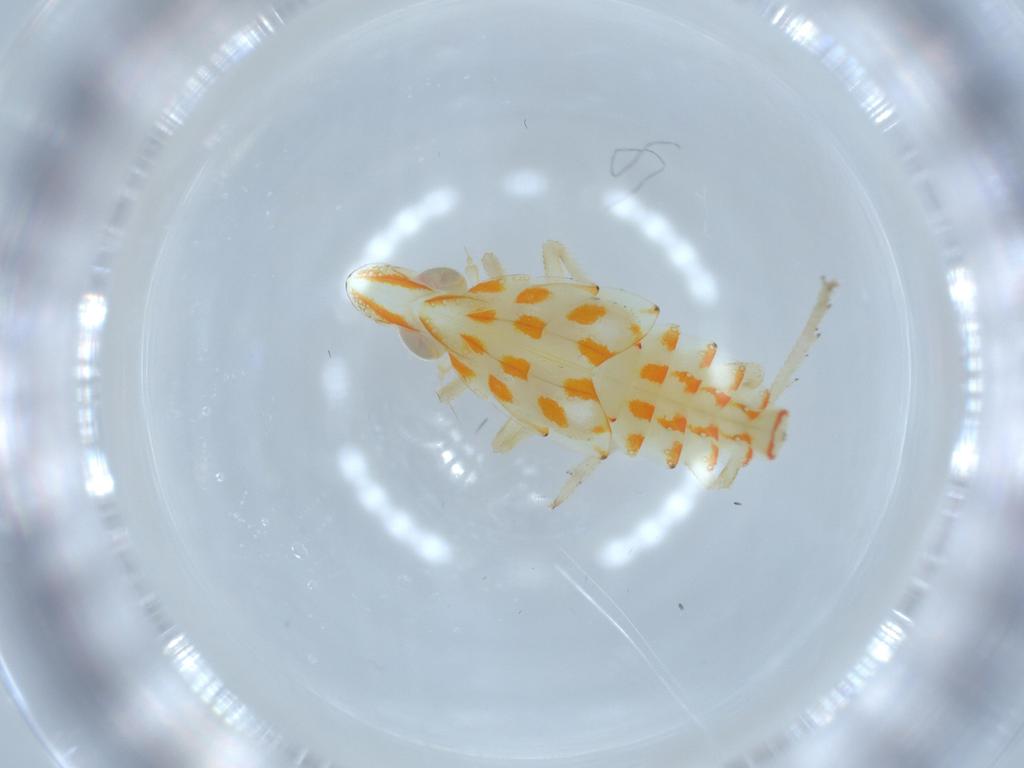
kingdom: Animalia
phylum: Arthropoda
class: Insecta
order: Hemiptera
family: Tropiduchidae
